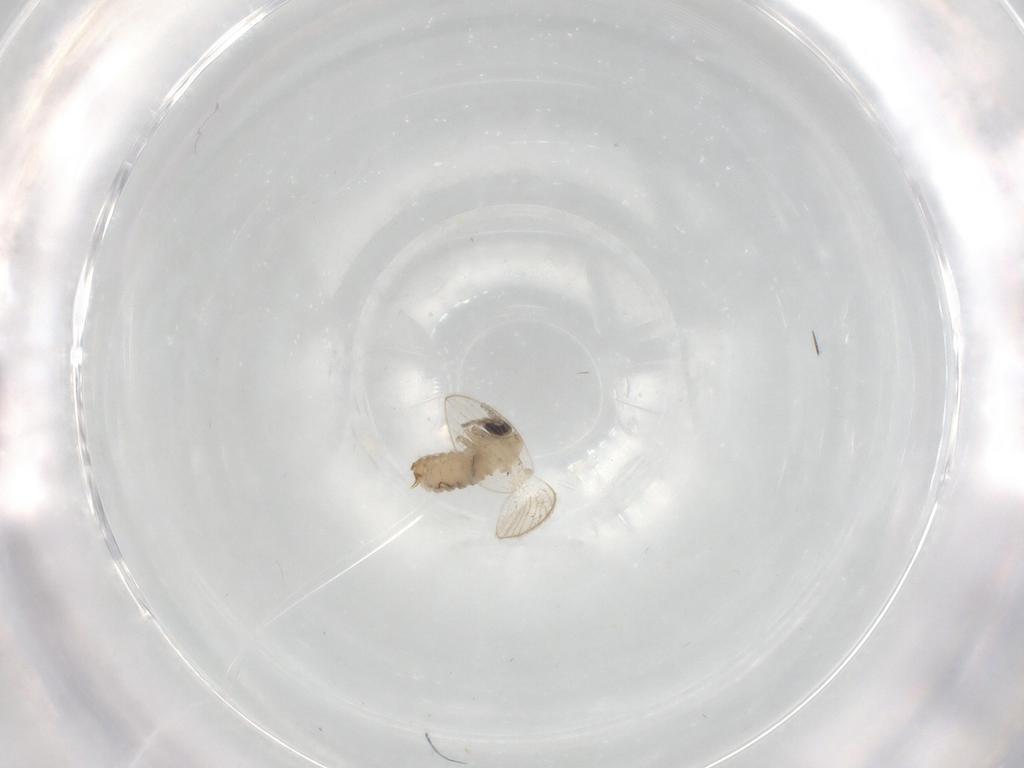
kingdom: Animalia
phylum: Arthropoda
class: Insecta
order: Diptera
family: Psychodidae
